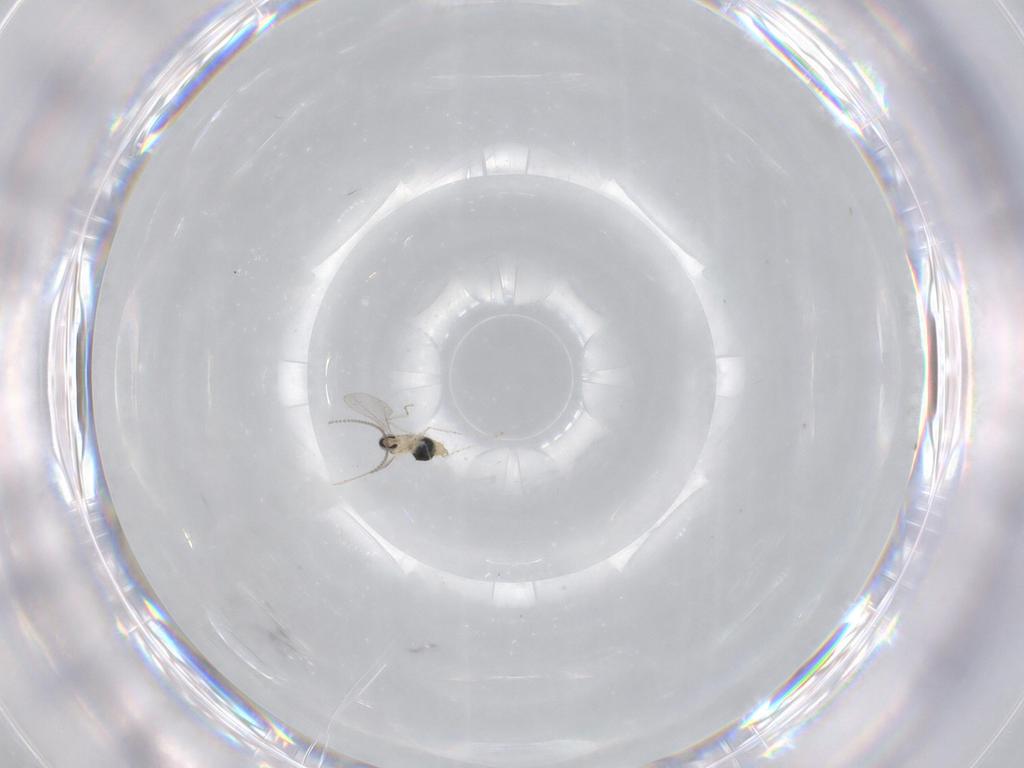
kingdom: Animalia
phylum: Arthropoda
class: Insecta
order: Diptera
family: Cecidomyiidae
